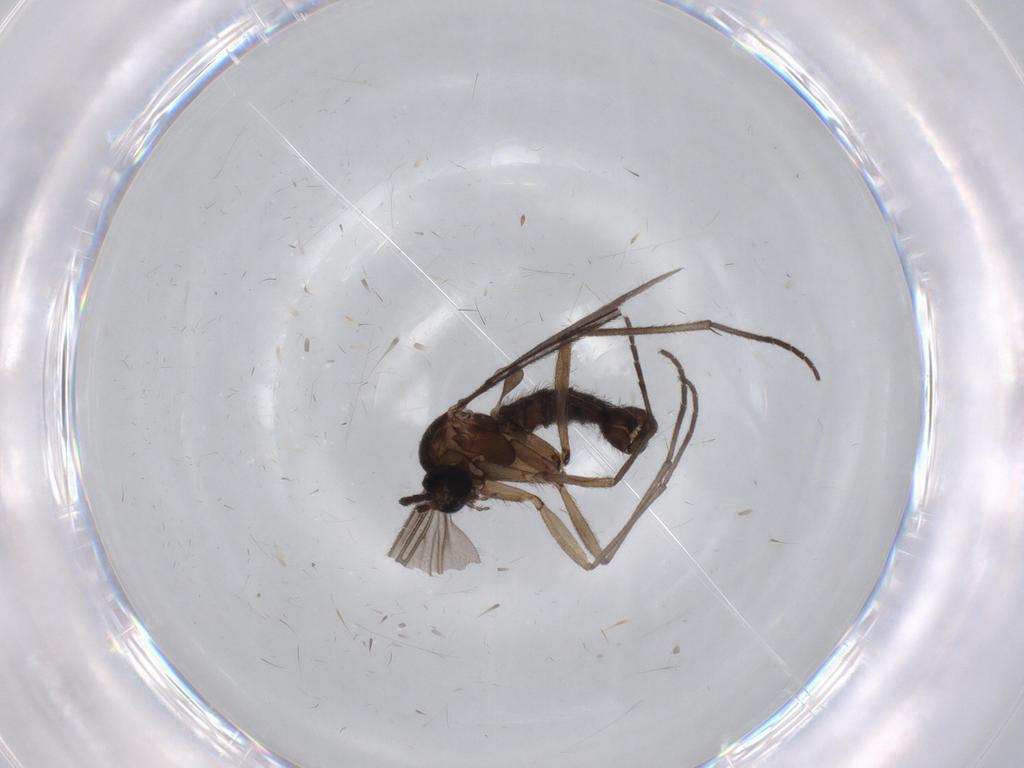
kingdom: Animalia
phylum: Arthropoda
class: Insecta
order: Diptera
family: Sciaridae
